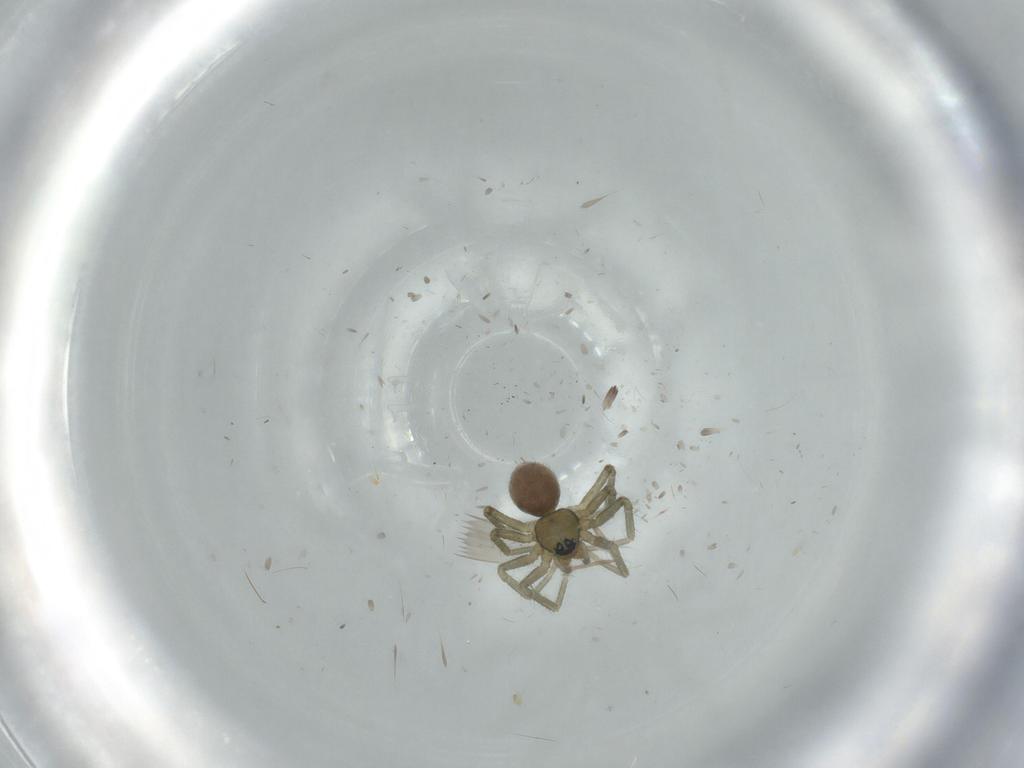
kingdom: Animalia
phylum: Arthropoda
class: Arachnida
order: Araneae
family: Linyphiidae
